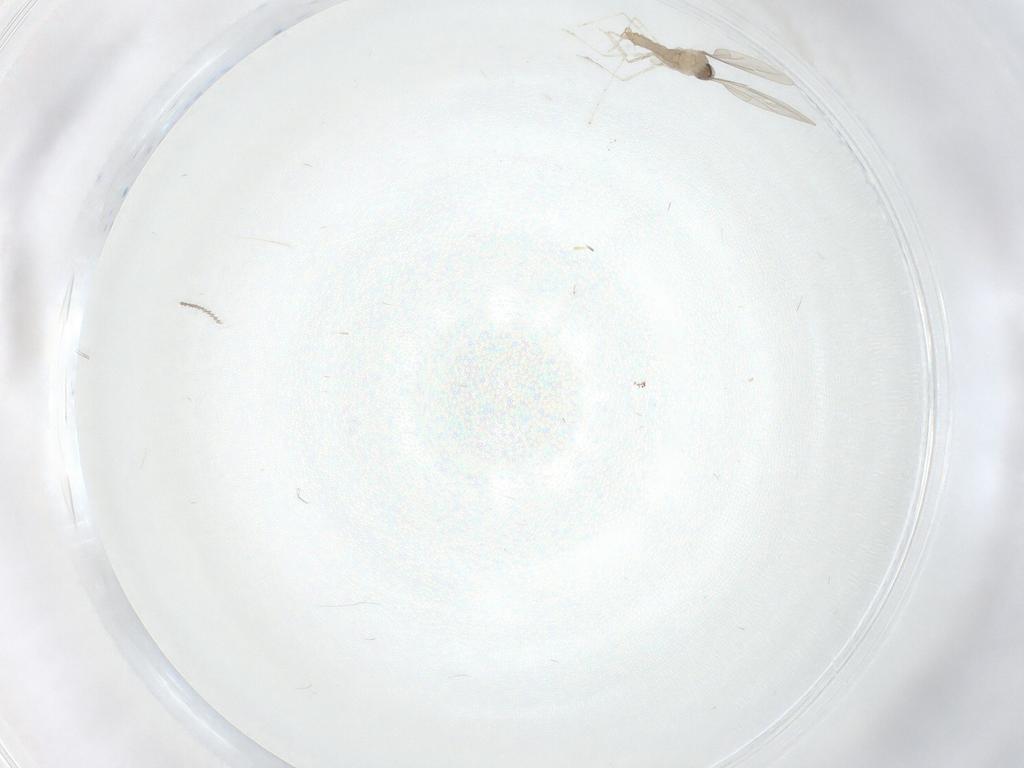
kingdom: Animalia
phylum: Arthropoda
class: Insecta
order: Diptera
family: Cecidomyiidae
